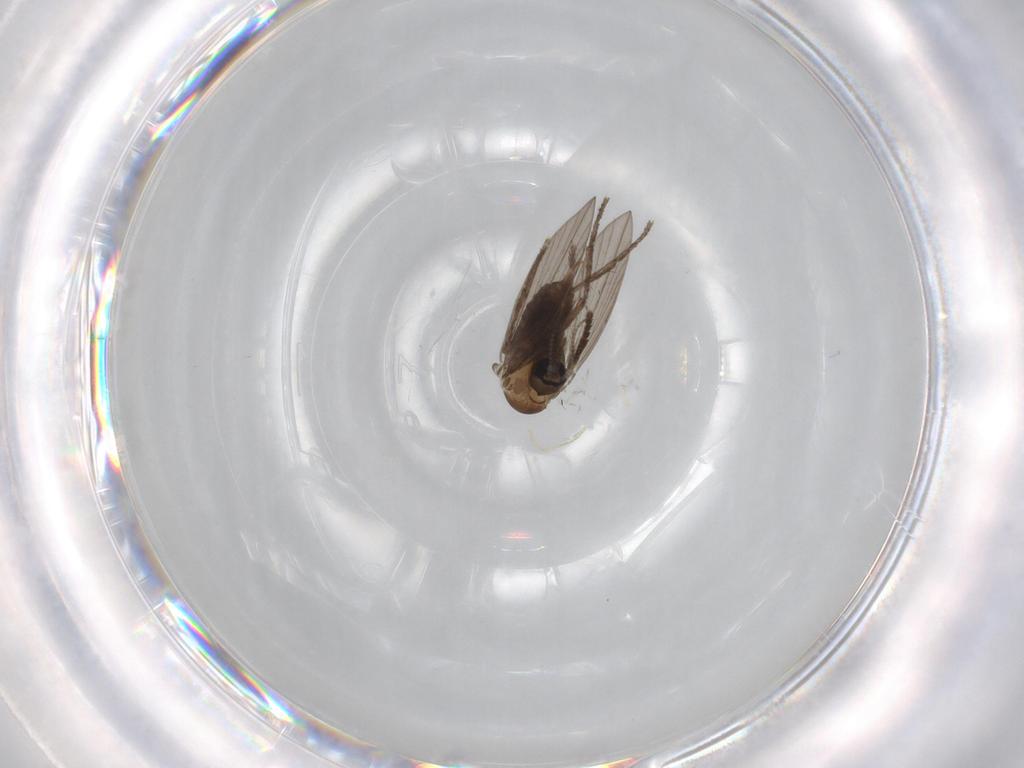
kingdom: Animalia
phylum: Arthropoda
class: Insecta
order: Diptera
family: Psychodidae
